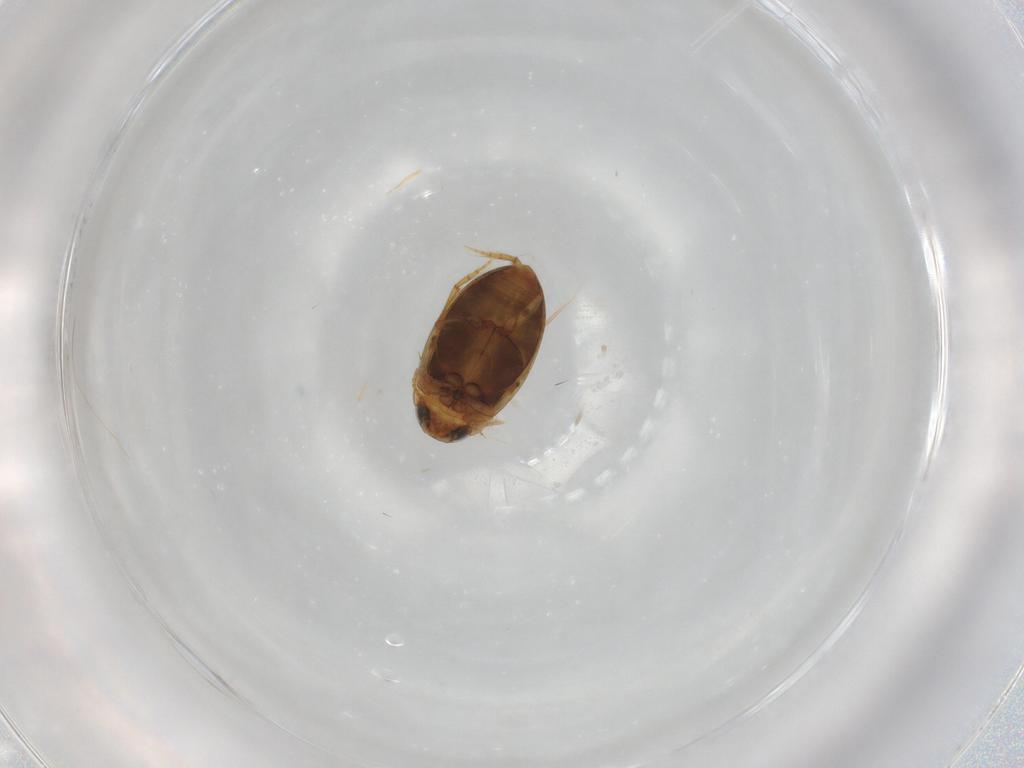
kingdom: Animalia
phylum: Arthropoda
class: Insecta
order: Coleoptera
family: Dytiscidae
